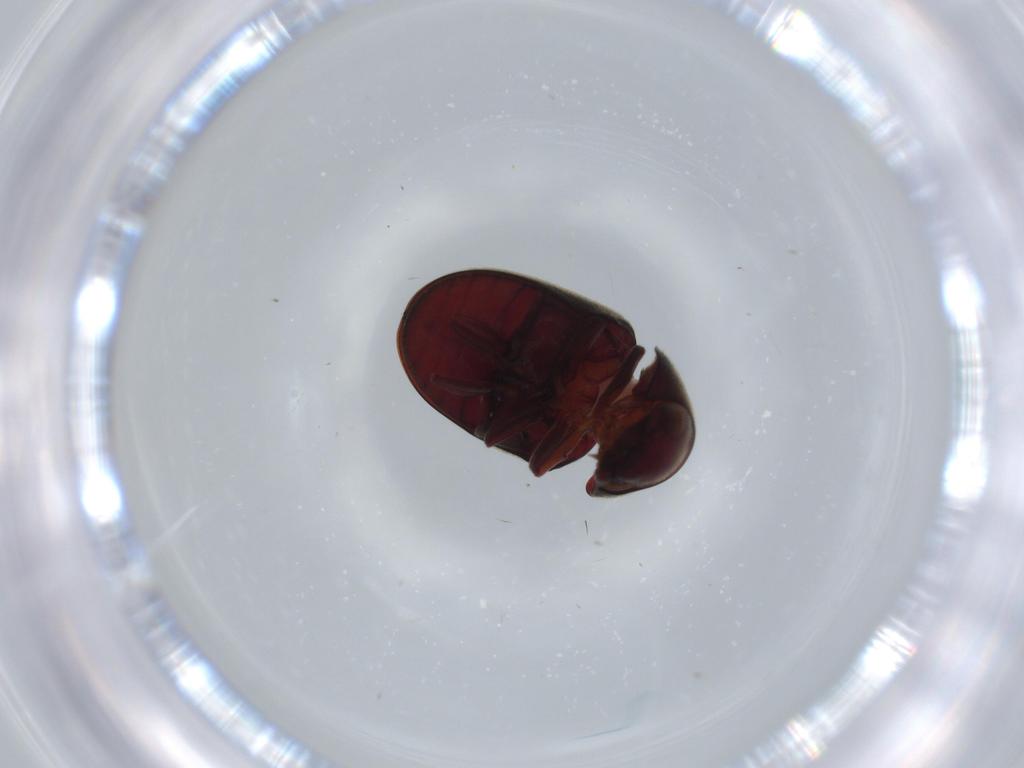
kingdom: Animalia
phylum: Arthropoda
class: Insecta
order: Coleoptera
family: Ptinidae
